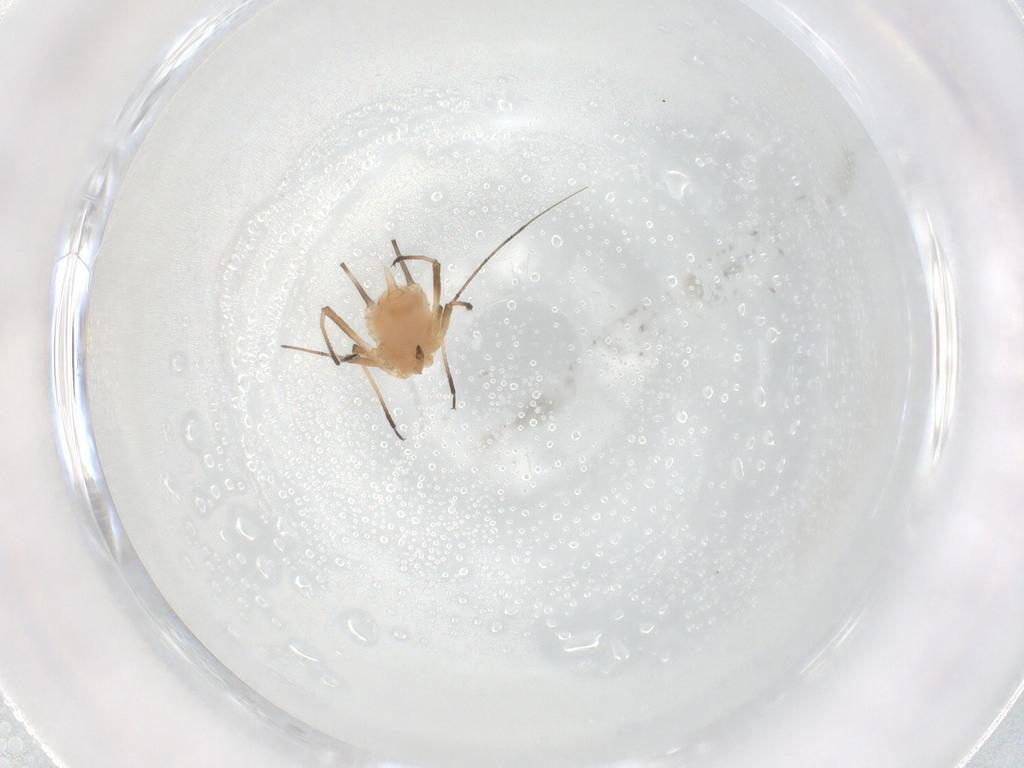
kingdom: Animalia
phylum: Arthropoda
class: Insecta
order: Hemiptera
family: Aphididae
